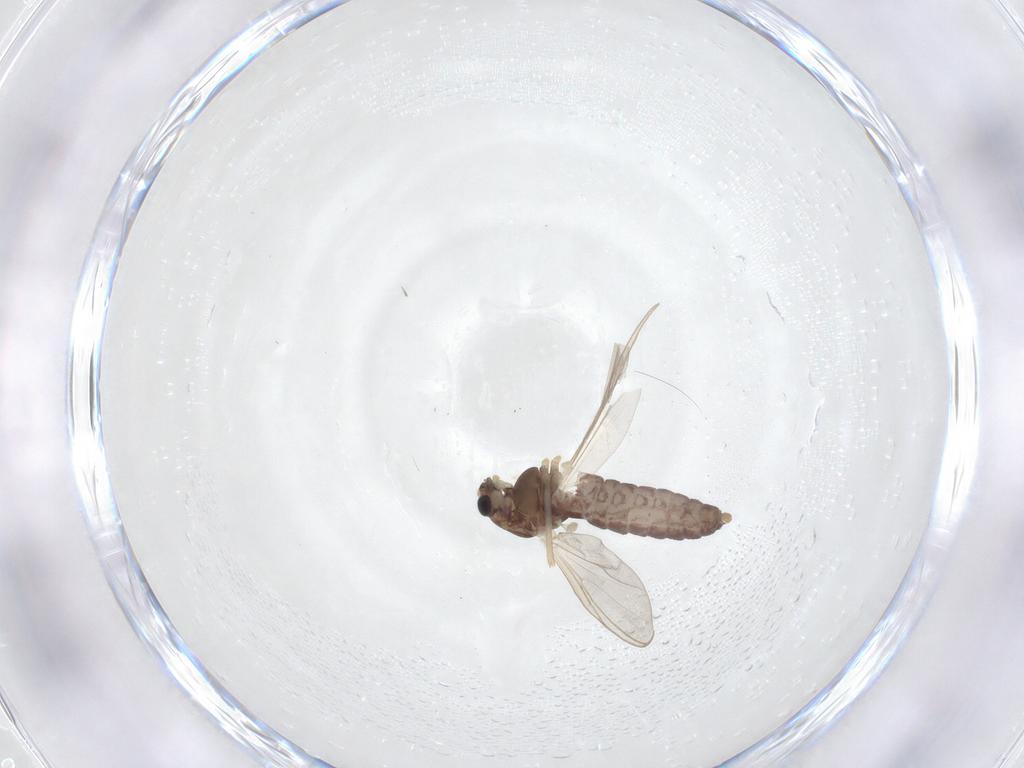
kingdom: Animalia
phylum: Arthropoda
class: Insecta
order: Diptera
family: Chironomidae
